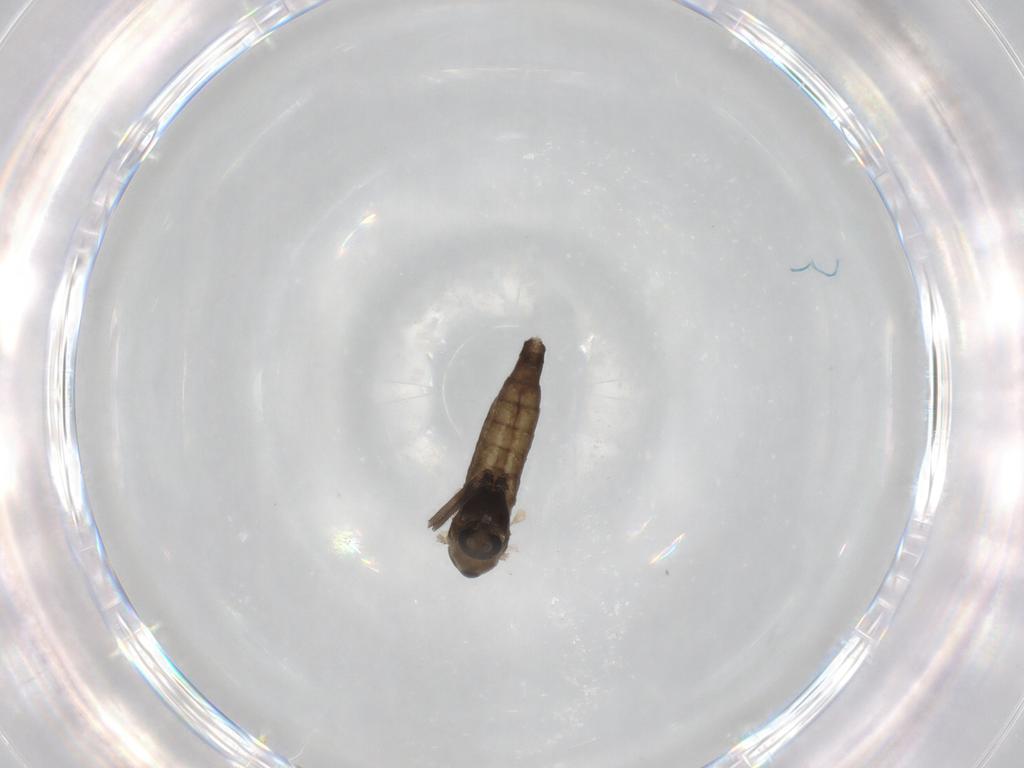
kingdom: Animalia
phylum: Arthropoda
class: Insecta
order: Diptera
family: Chironomidae
